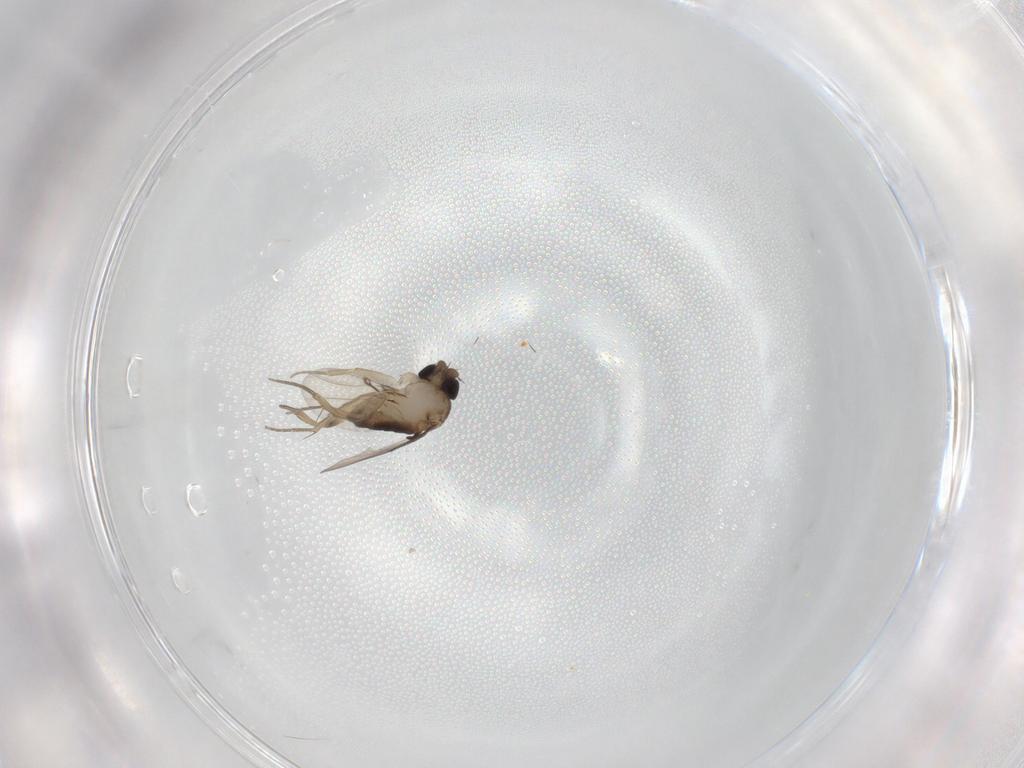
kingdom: Animalia
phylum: Arthropoda
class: Insecta
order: Diptera
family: Phoridae
